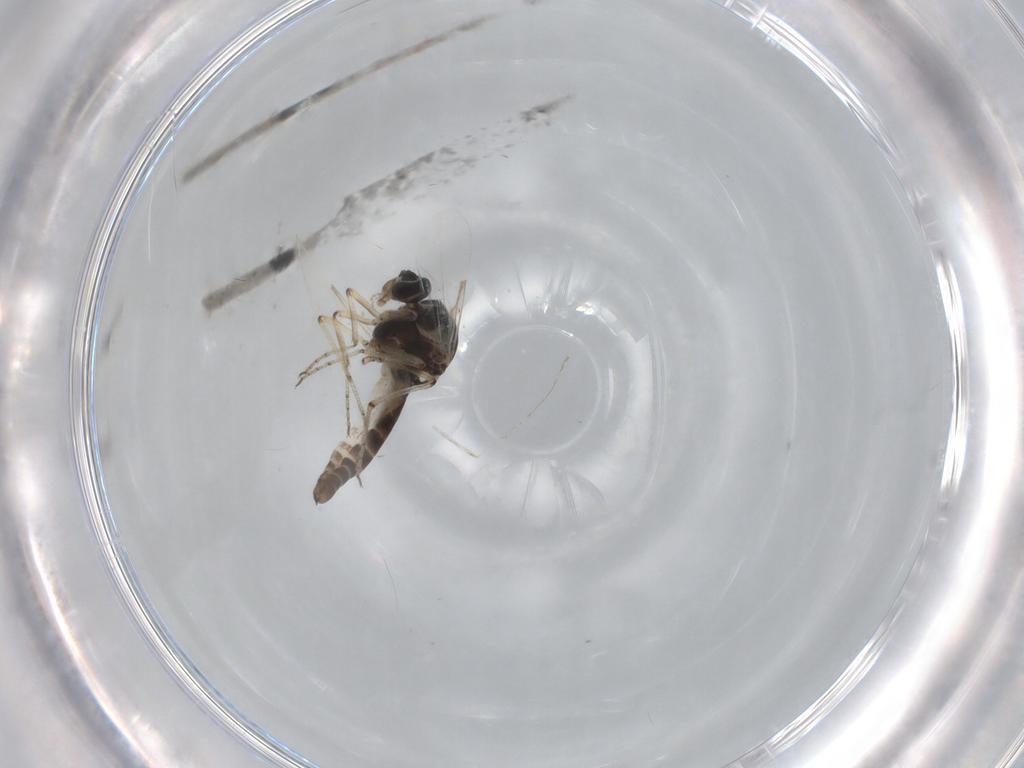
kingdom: Animalia
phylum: Arthropoda
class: Insecta
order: Diptera
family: Ceratopogonidae
